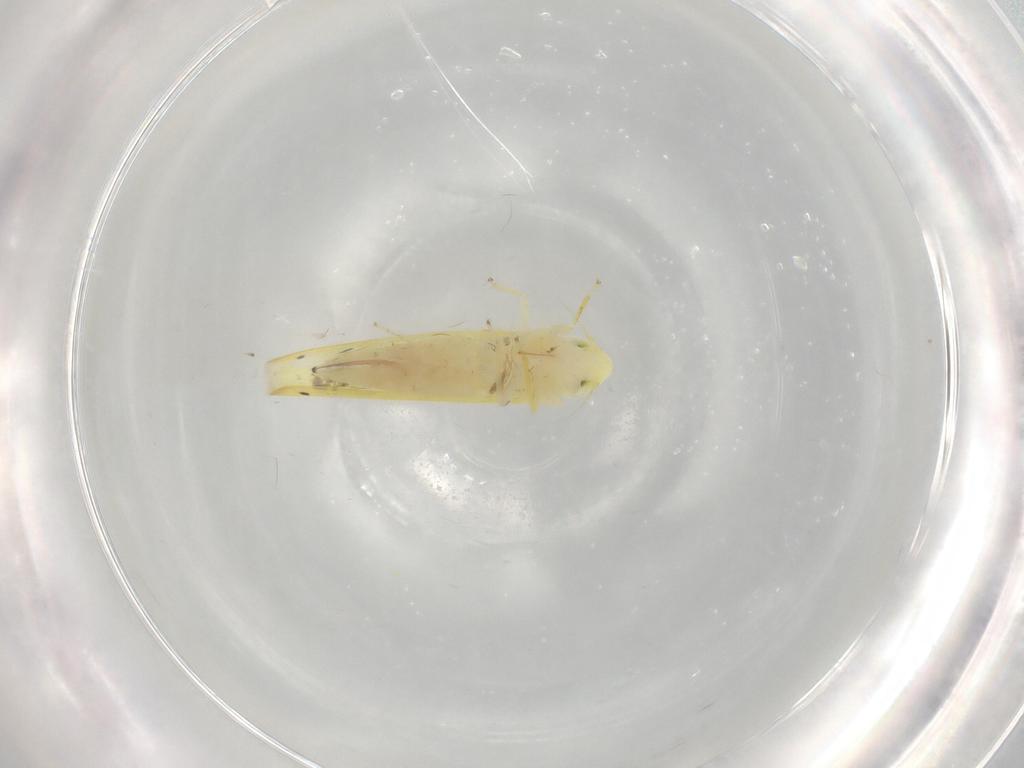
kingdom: Animalia
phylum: Arthropoda
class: Insecta
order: Hemiptera
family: Cicadellidae
